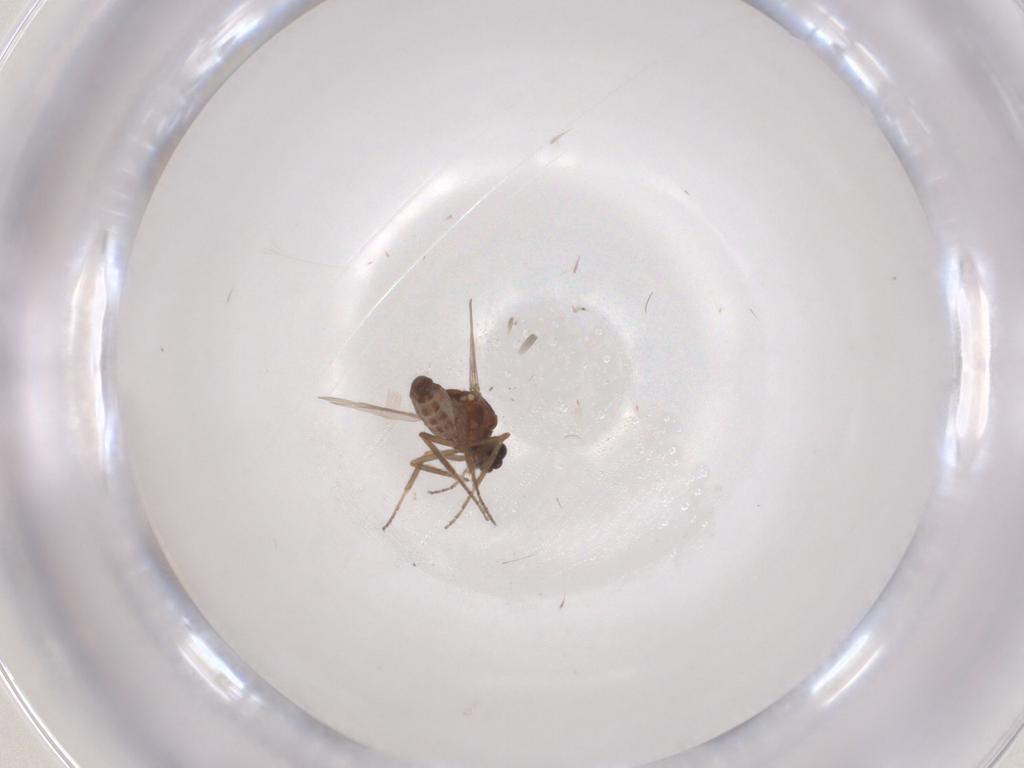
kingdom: Animalia
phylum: Arthropoda
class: Insecta
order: Diptera
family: Ceratopogonidae
